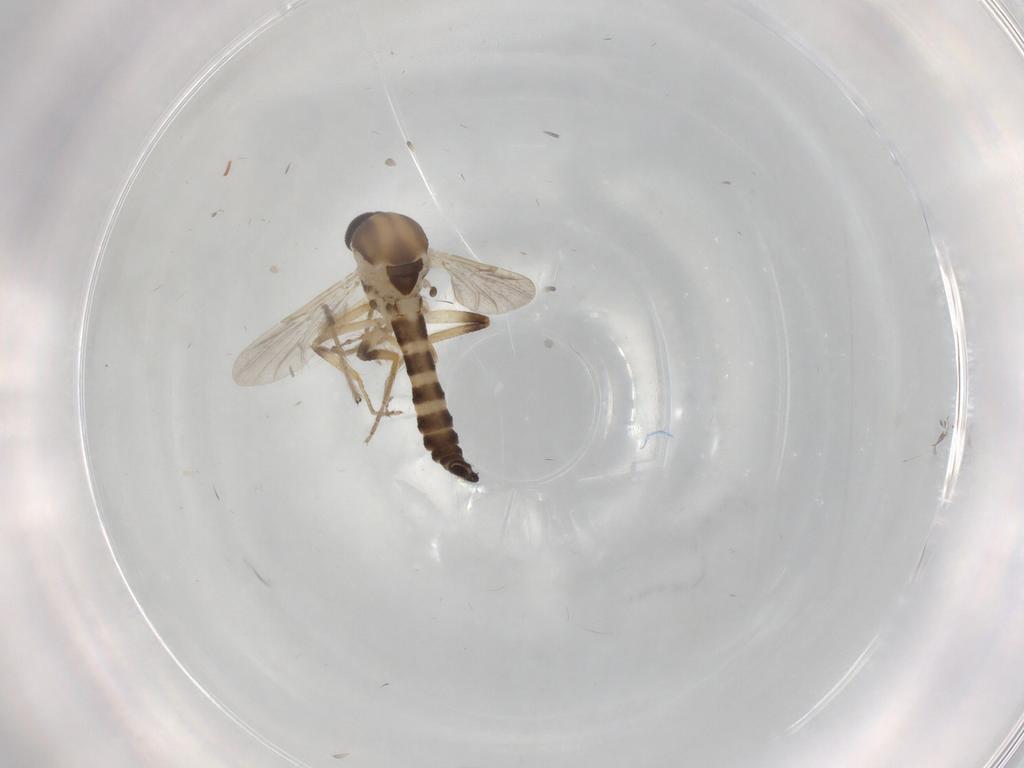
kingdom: Animalia
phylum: Arthropoda
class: Insecta
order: Diptera
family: Ceratopogonidae
